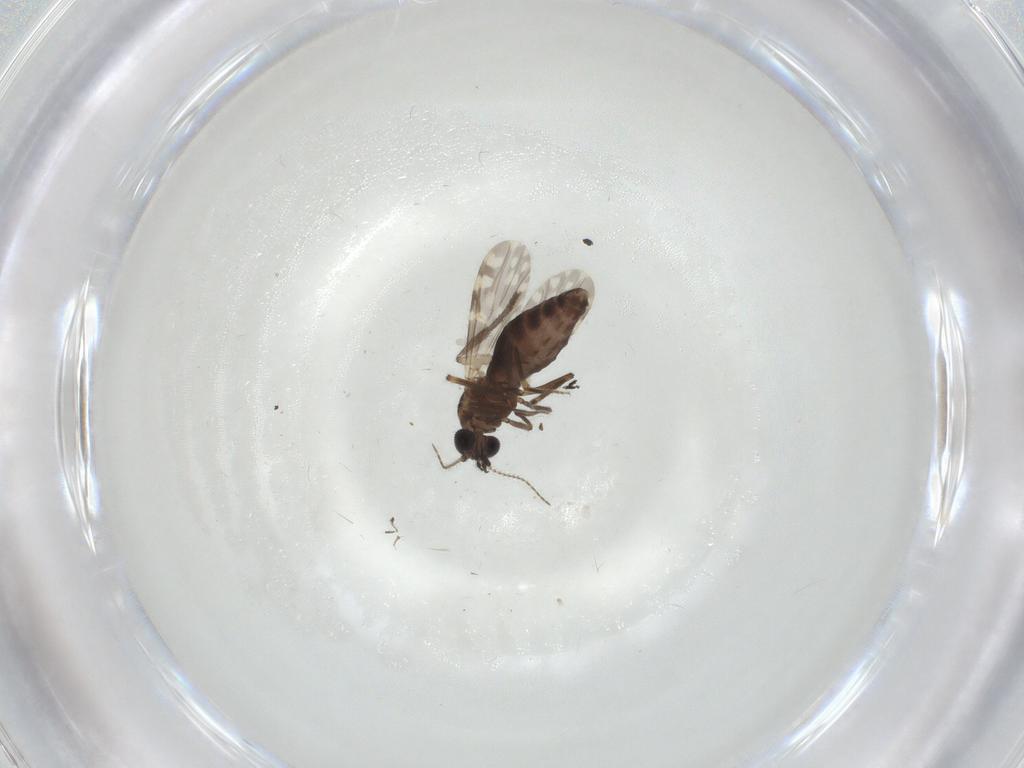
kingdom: Animalia
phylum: Arthropoda
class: Insecta
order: Diptera
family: Ceratopogonidae
